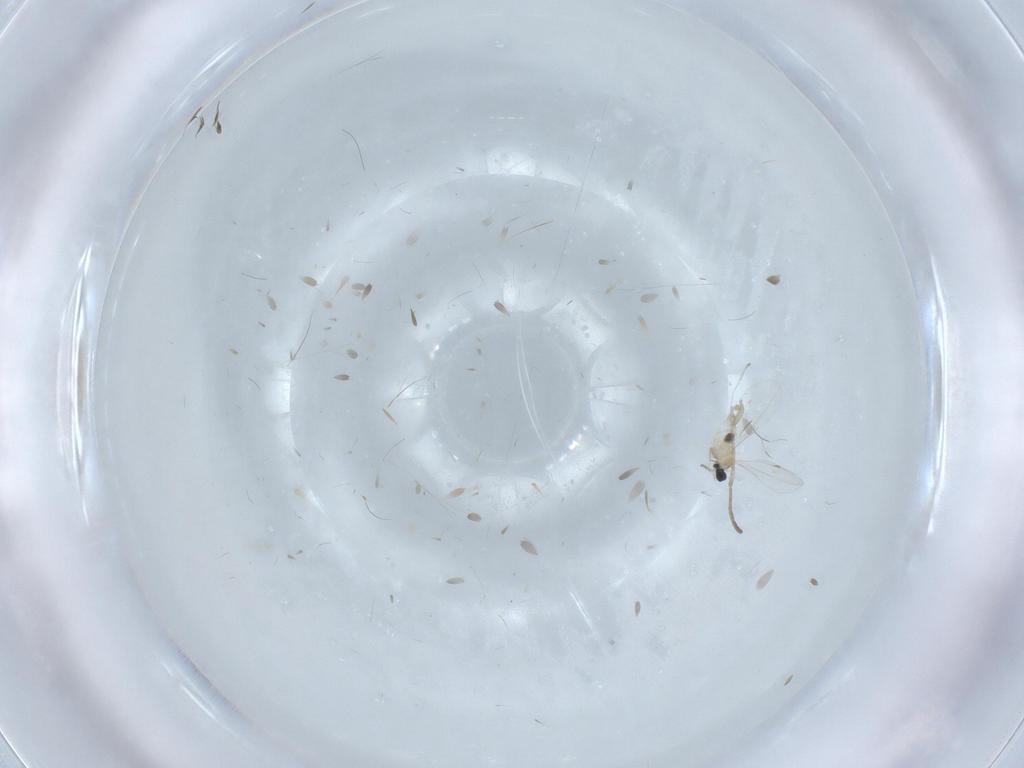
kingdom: Animalia
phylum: Arthropoda
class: Insecta
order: Diptera
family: Cecidomyiidae
